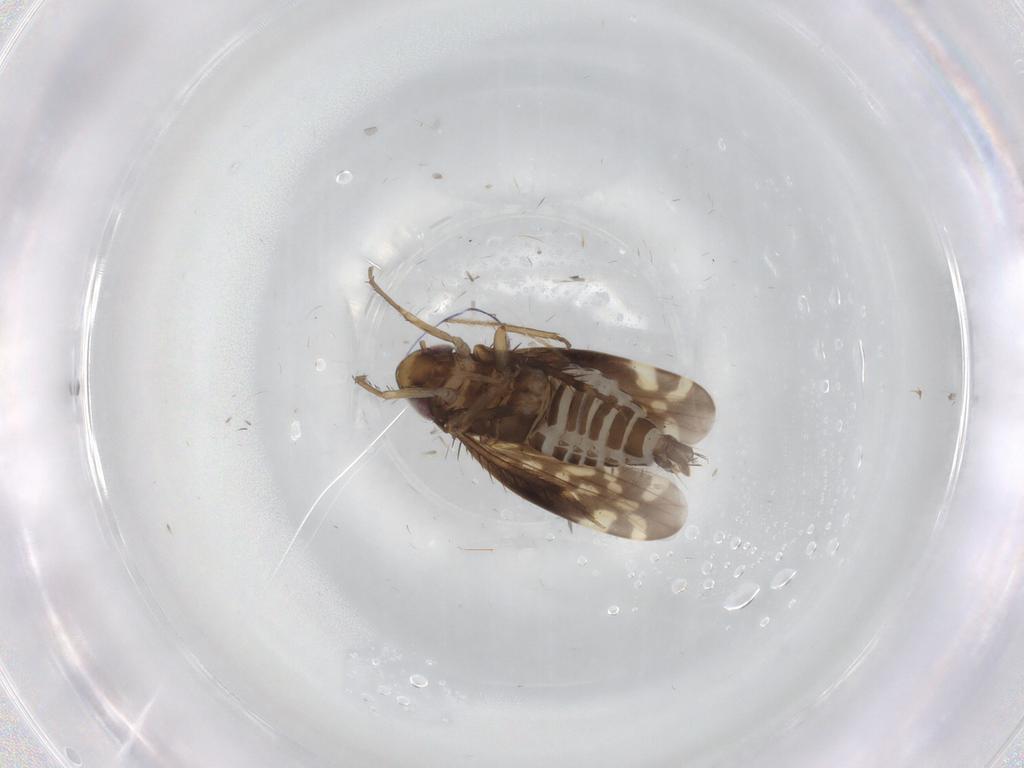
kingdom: Animalia
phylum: Arthropoda
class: Insecta
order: Hemiptera
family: Cicadellidae
